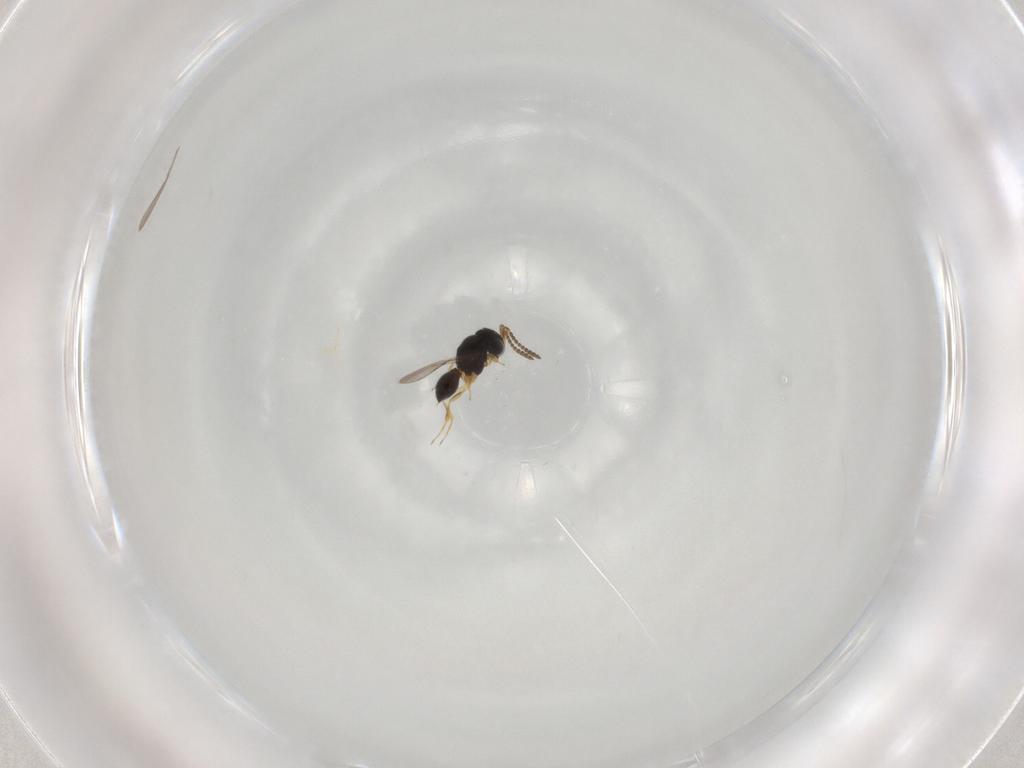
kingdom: Animalia
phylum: Arthropoda
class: Insecta
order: Hymenoptera
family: Scelionidae
